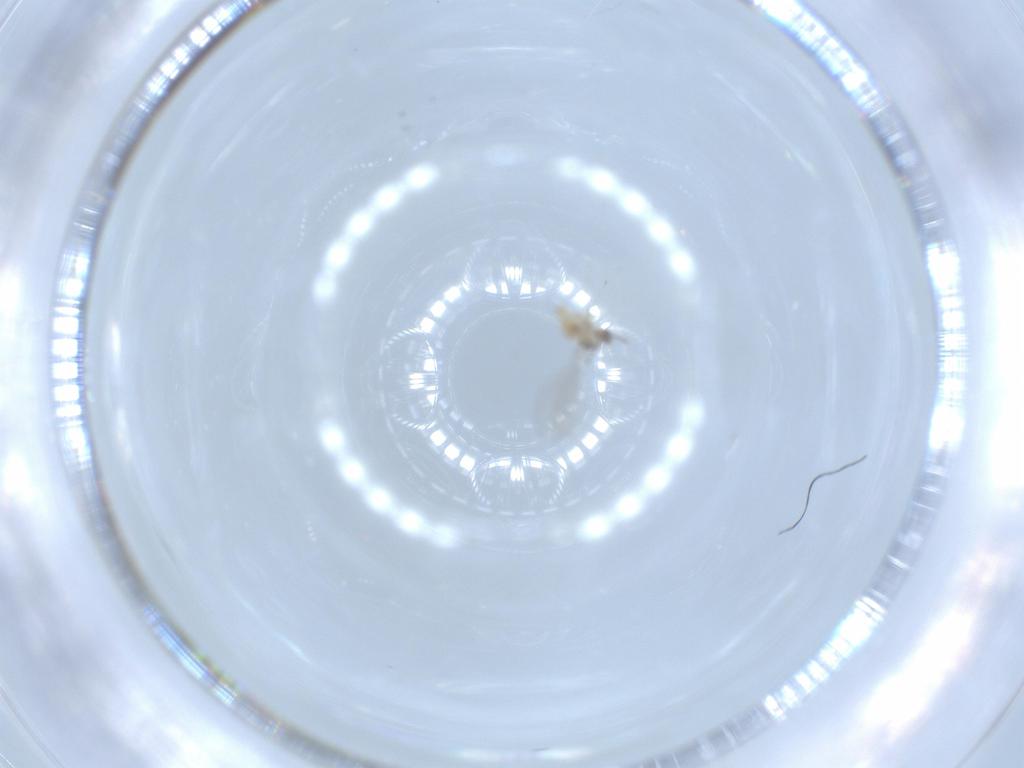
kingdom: Animalia
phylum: Arthropoda
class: Insecta
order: Diptera
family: Cecidomyiidae
